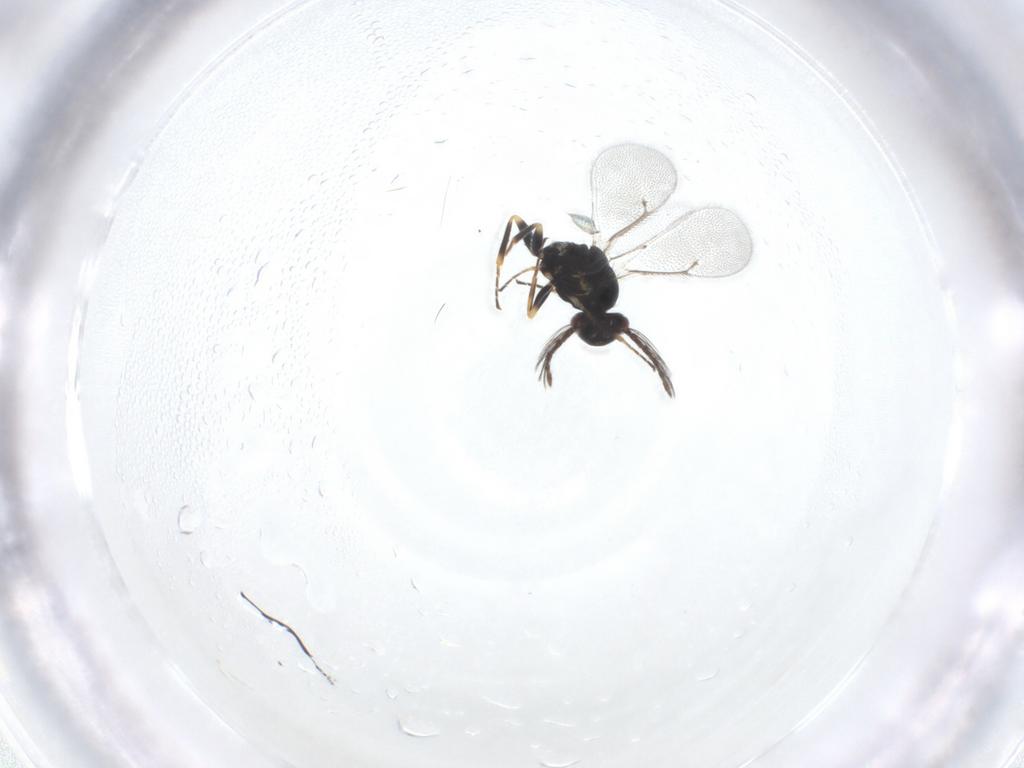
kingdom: Animalia
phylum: Arthropoda
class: Insecta
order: Hymenoptera
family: Eulophidae
